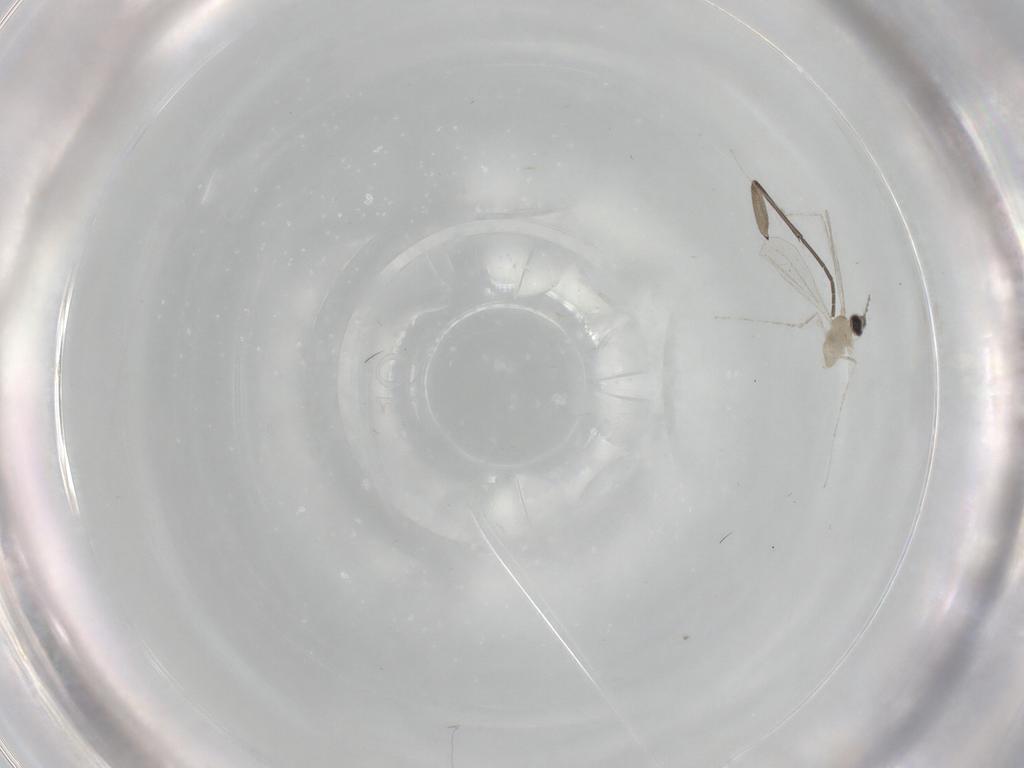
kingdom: Animalia
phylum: Arthropoda
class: Insecta
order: Diptera
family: Cecidomyiidae
